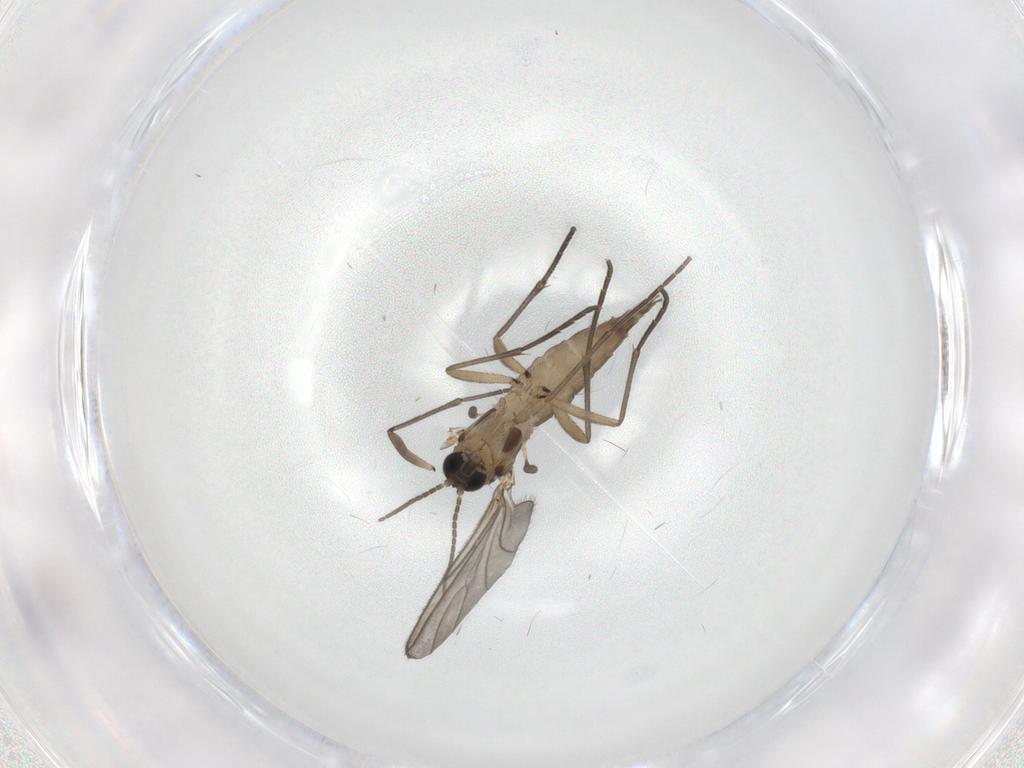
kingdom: Animalia
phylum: Arthropoda
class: Insecta
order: Diptera
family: Sciaridae
